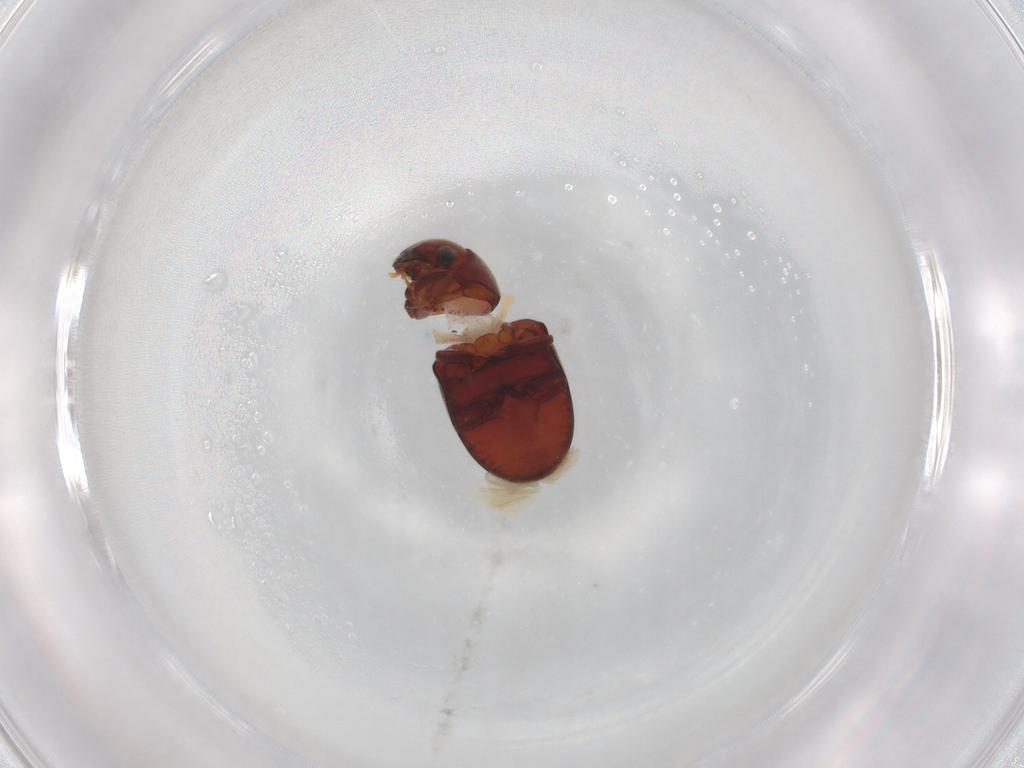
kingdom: Animalia
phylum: Arthropoda
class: Insecta
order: Coleoptera
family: Ptinidae
